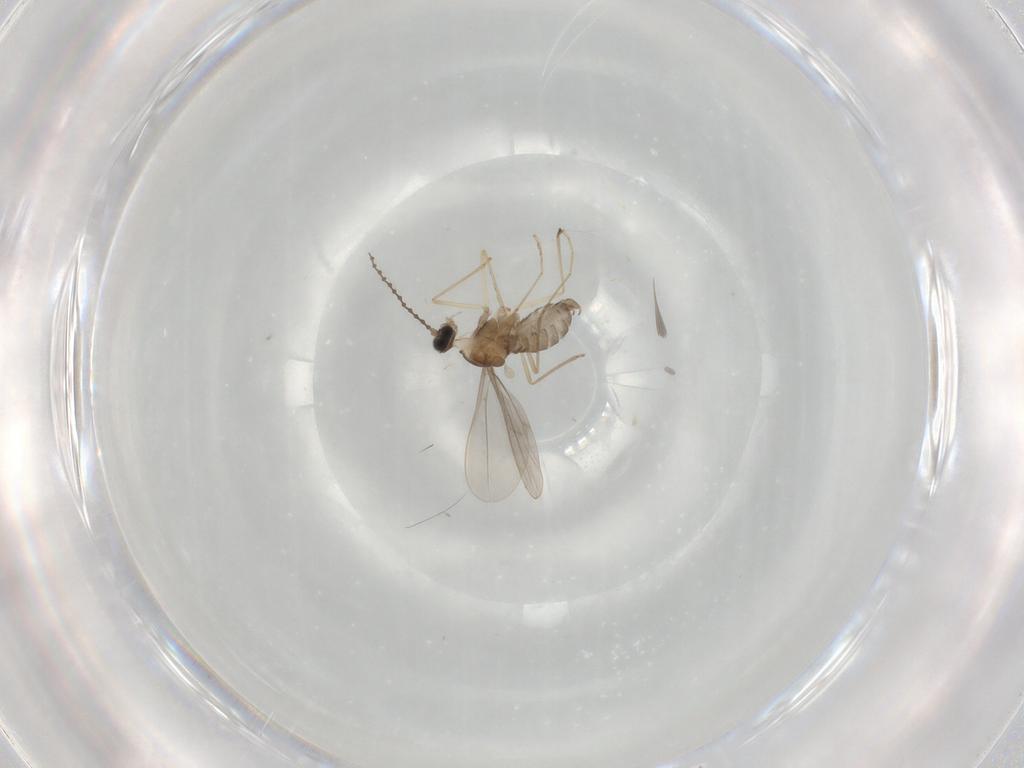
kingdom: Animalia
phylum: Arthropoda
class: Insecta
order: Diptera
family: Cecidomyiidae
